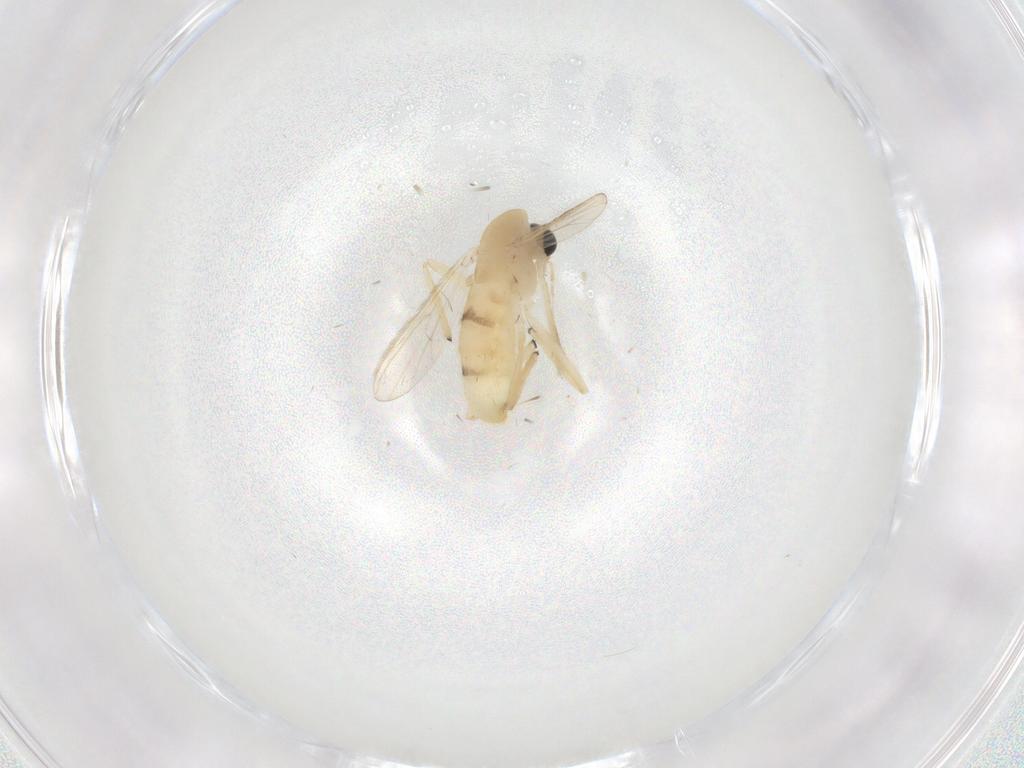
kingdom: Animalia
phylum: Arthropoda
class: Insecta
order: Diptera
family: Chironomidae
